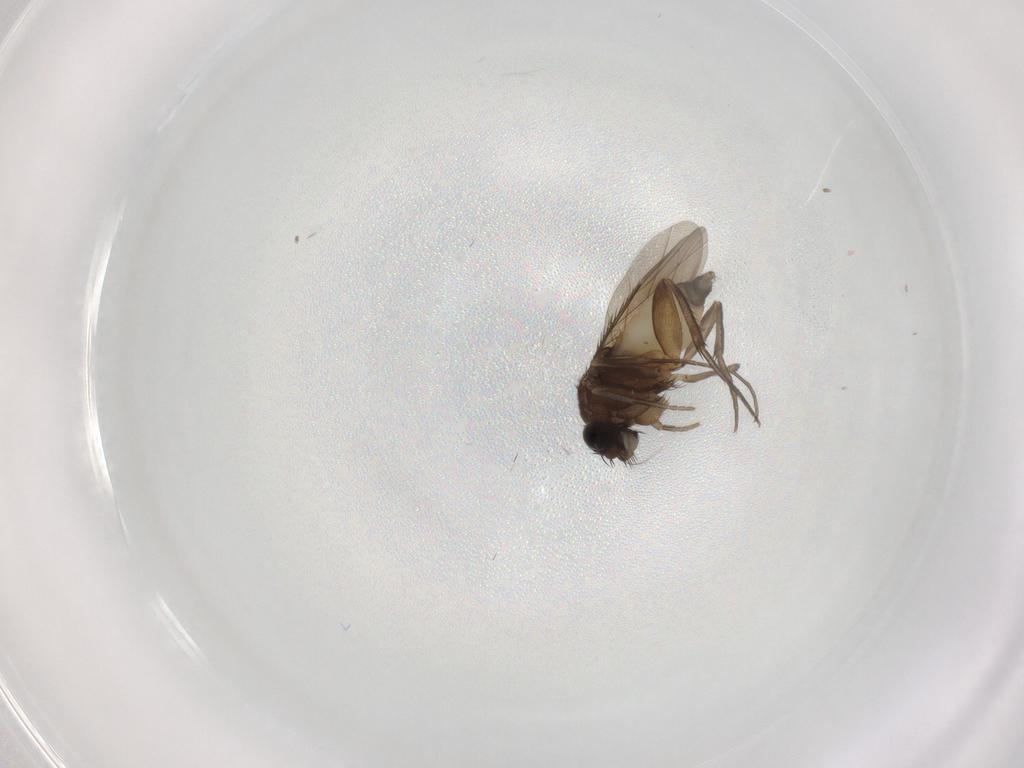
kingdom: Animalia
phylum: Arthropoda
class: Insecta
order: Diptera
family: Phoridae
